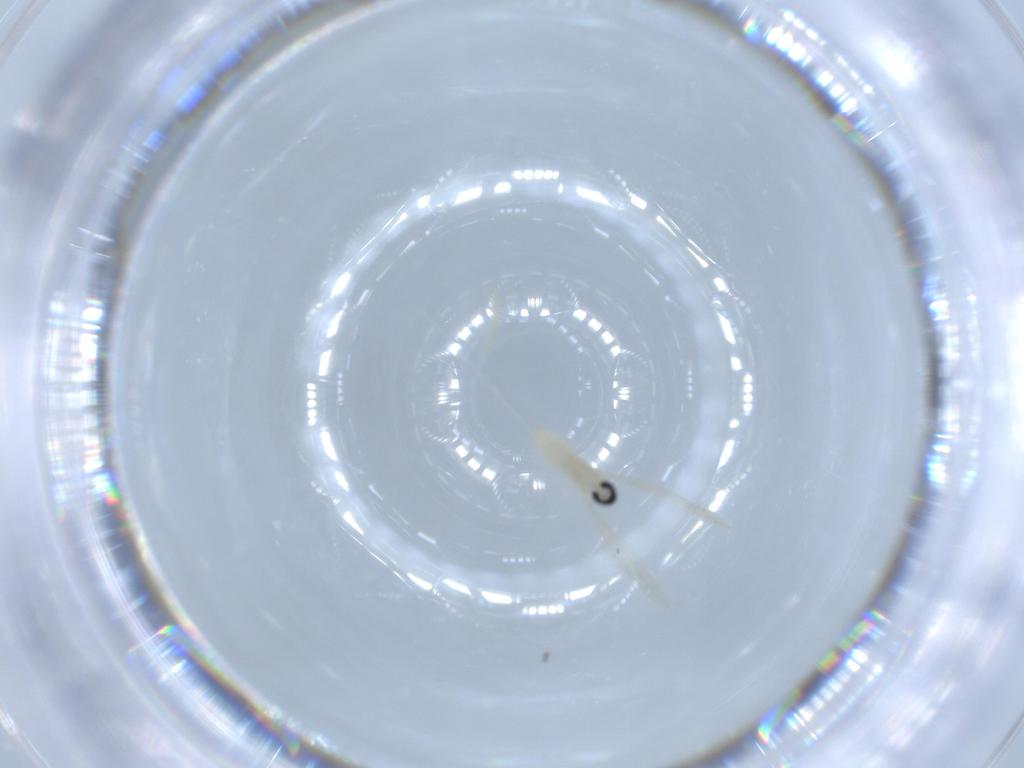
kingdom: Animalia
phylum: Arthropoda
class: Insecta
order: Diptera
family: Cecidomyiidae
